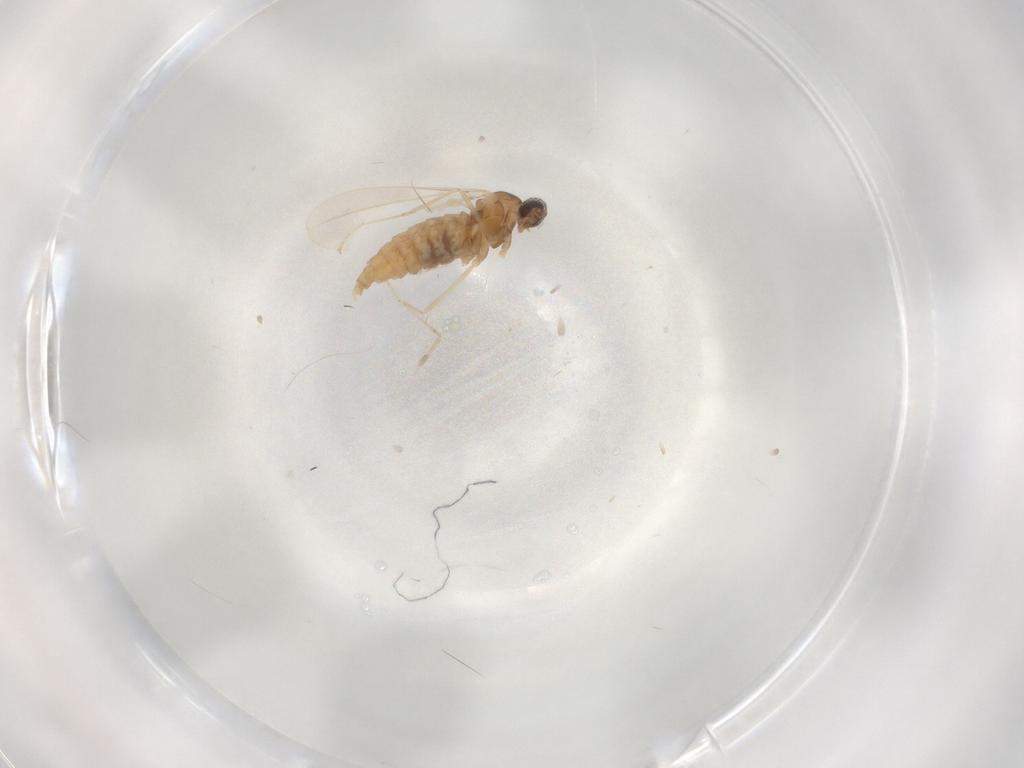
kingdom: Animalia
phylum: Arthropoda
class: Insecta
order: Diptera
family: Cecidomyiidae
